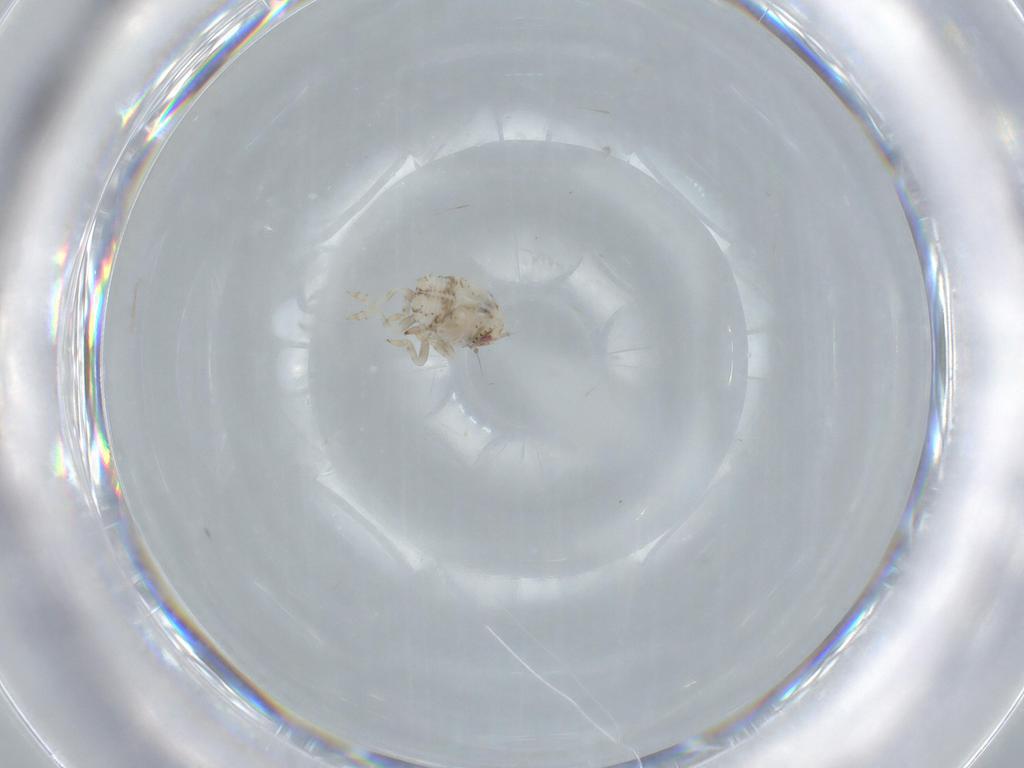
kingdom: Animalia
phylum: Arthropoda
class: Insecta
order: Hemiptera
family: Acanaloniidae
